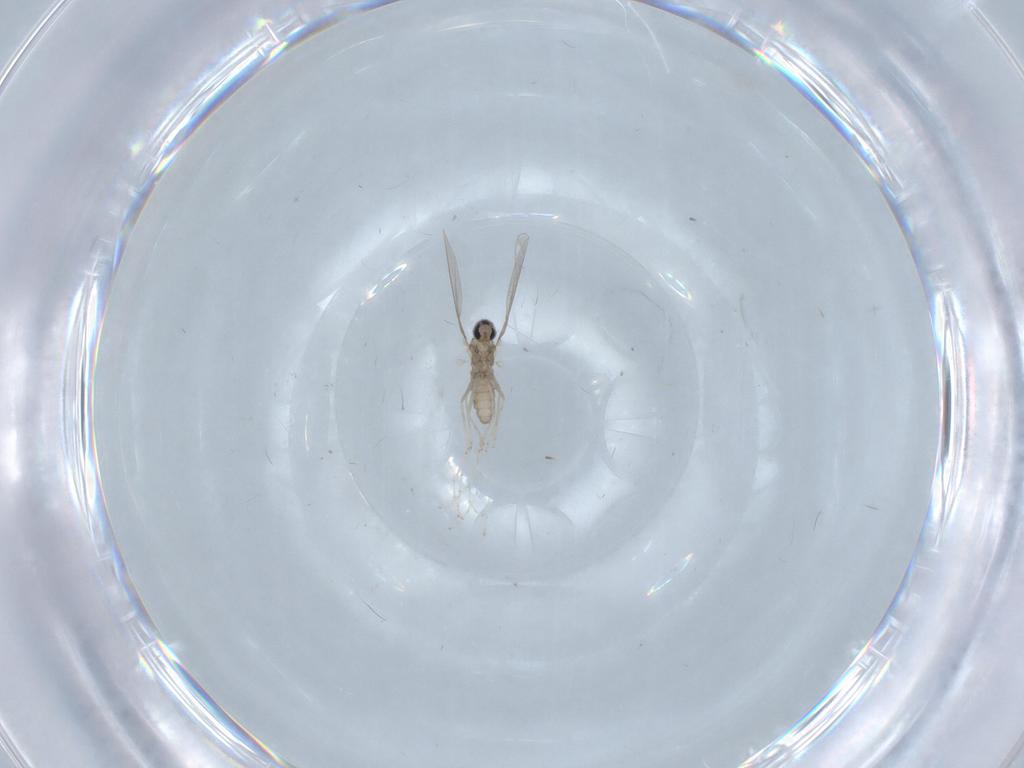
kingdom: Animalia
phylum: Arthropoda
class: Insecta
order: Diptera
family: Cecidomyiidae
